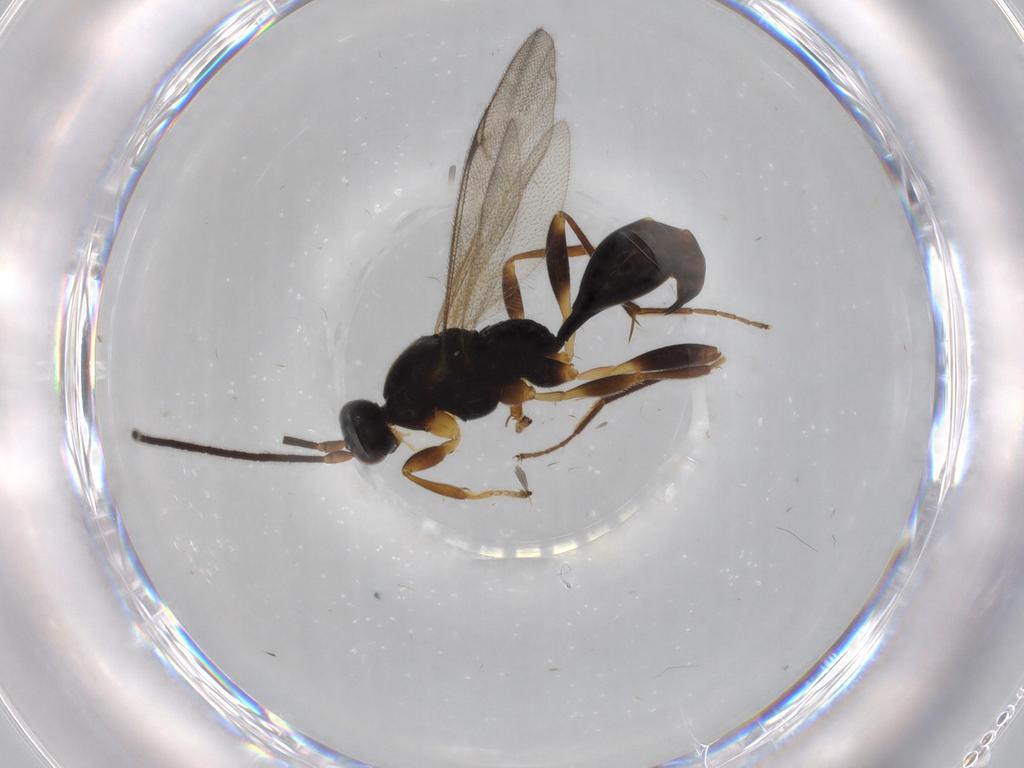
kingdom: Animalia
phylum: Arthropoda
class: Insecta
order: Hymenoptera
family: Proctotrupidae
